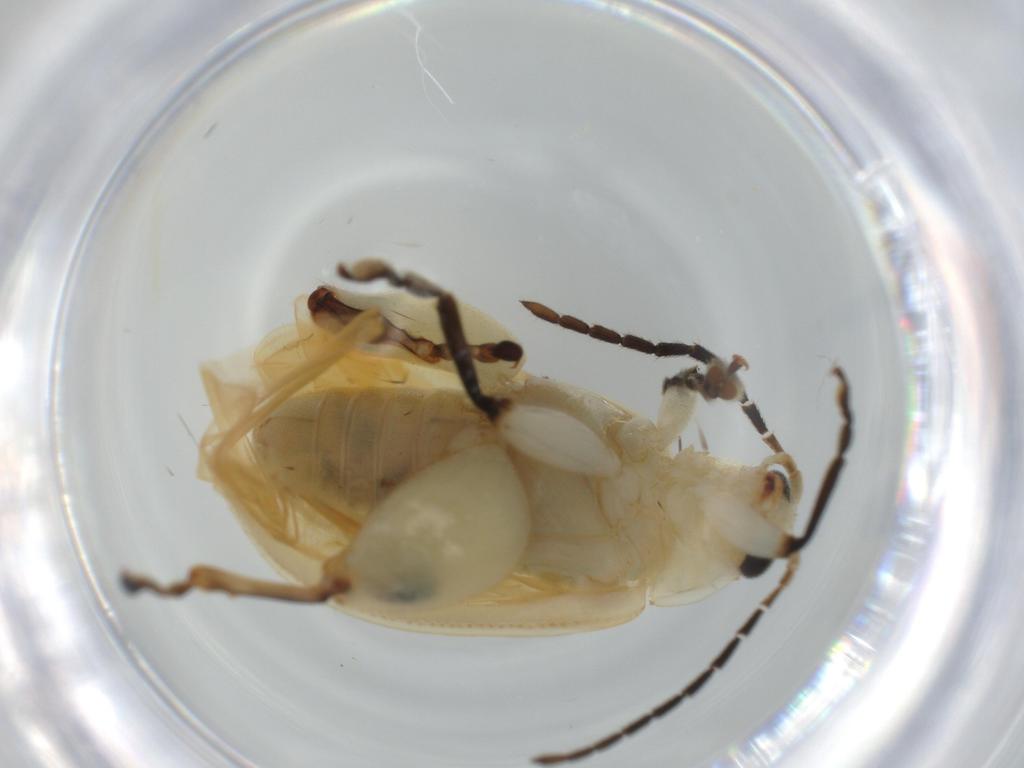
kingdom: Animalia
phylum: Arthropoda
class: Insecta
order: Coleoptera
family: Chrysomelidae
